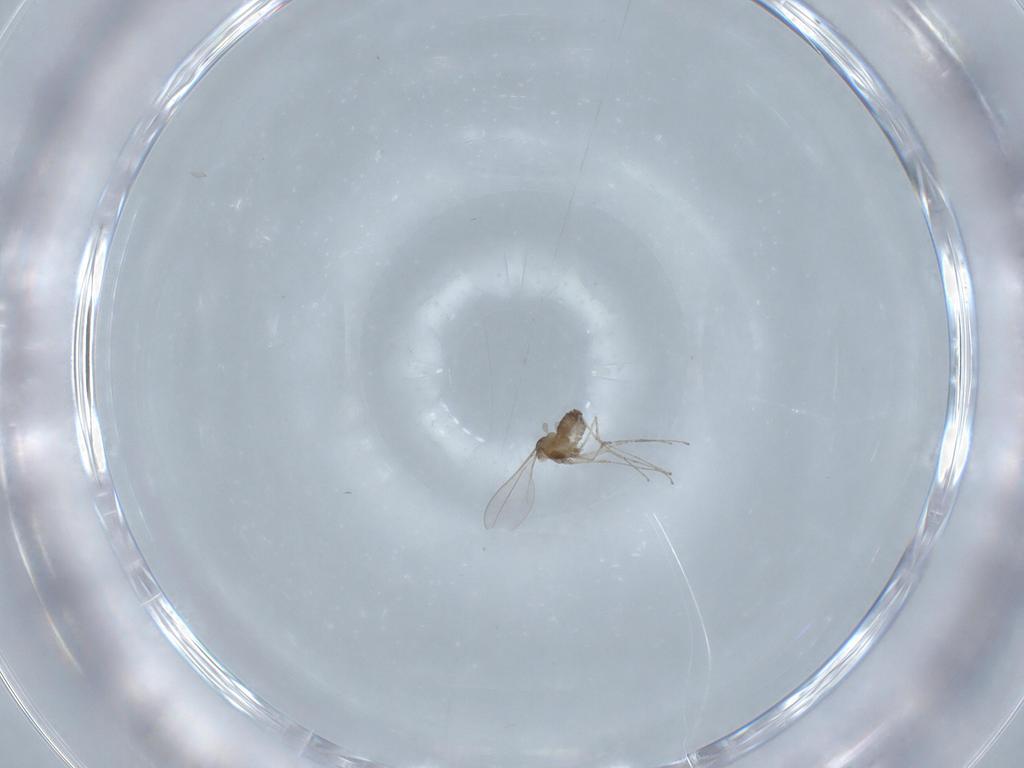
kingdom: Animalia
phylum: Arthropoda
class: Insecta
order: Diptera
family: Cecidomyiidae
